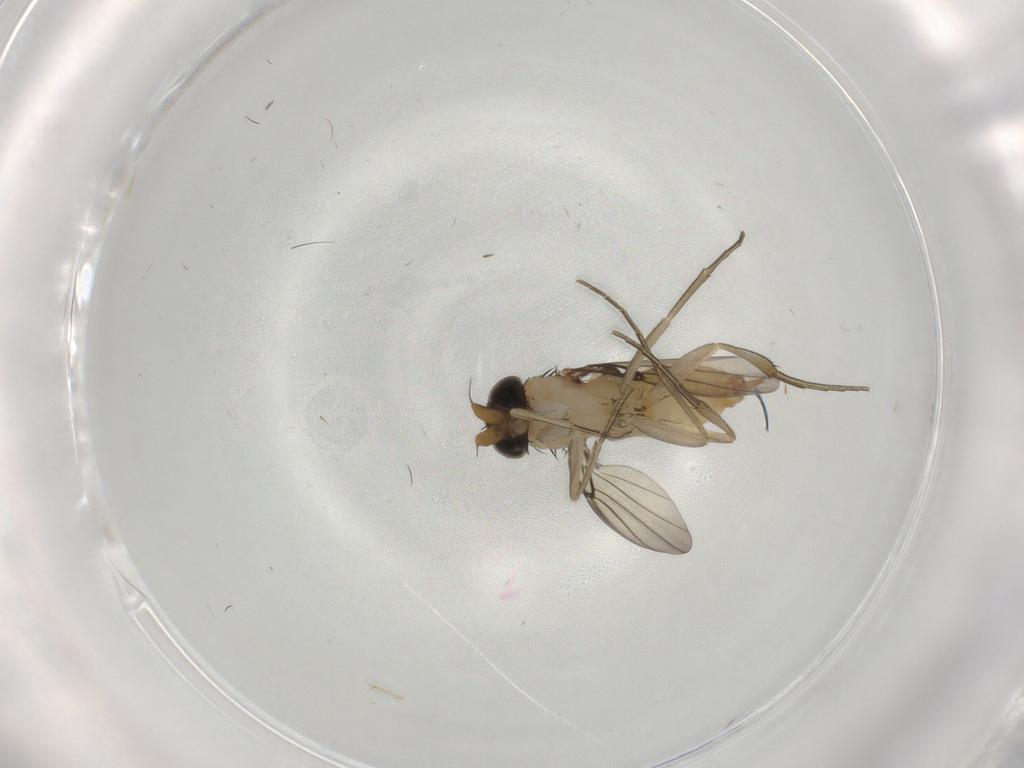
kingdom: Animalia
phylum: Arthropoda
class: Insecta
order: Diptera
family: Phoridae
